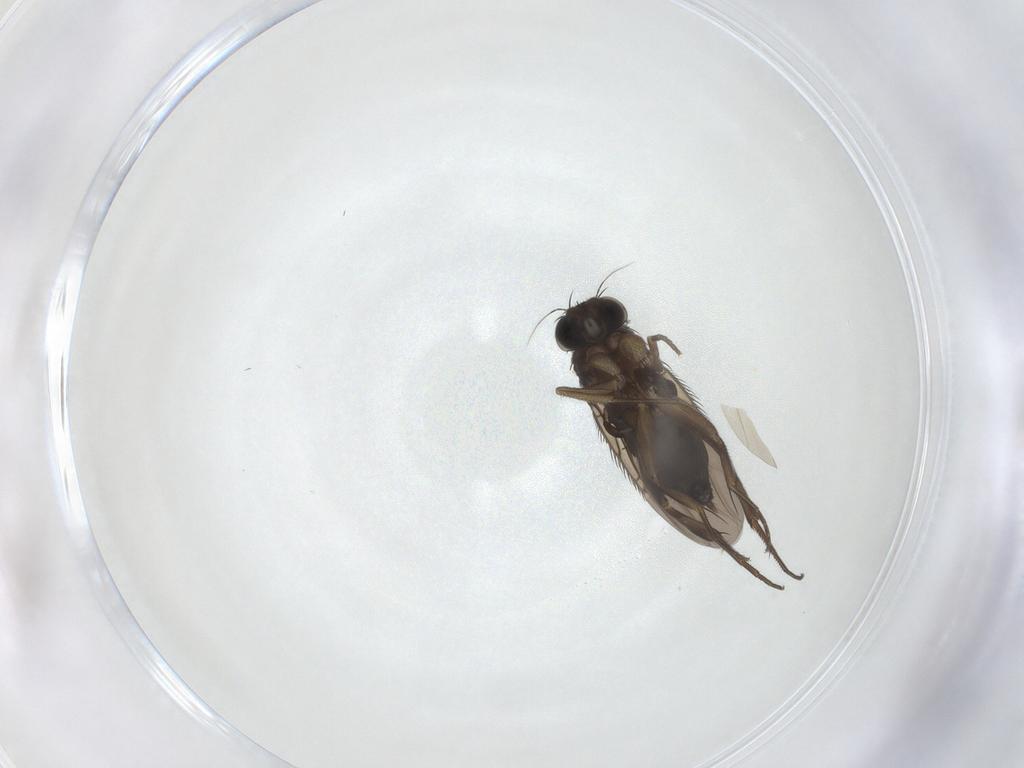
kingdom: Animalia
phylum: Arthropoda
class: Insecta
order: Diptera
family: Phoridae
